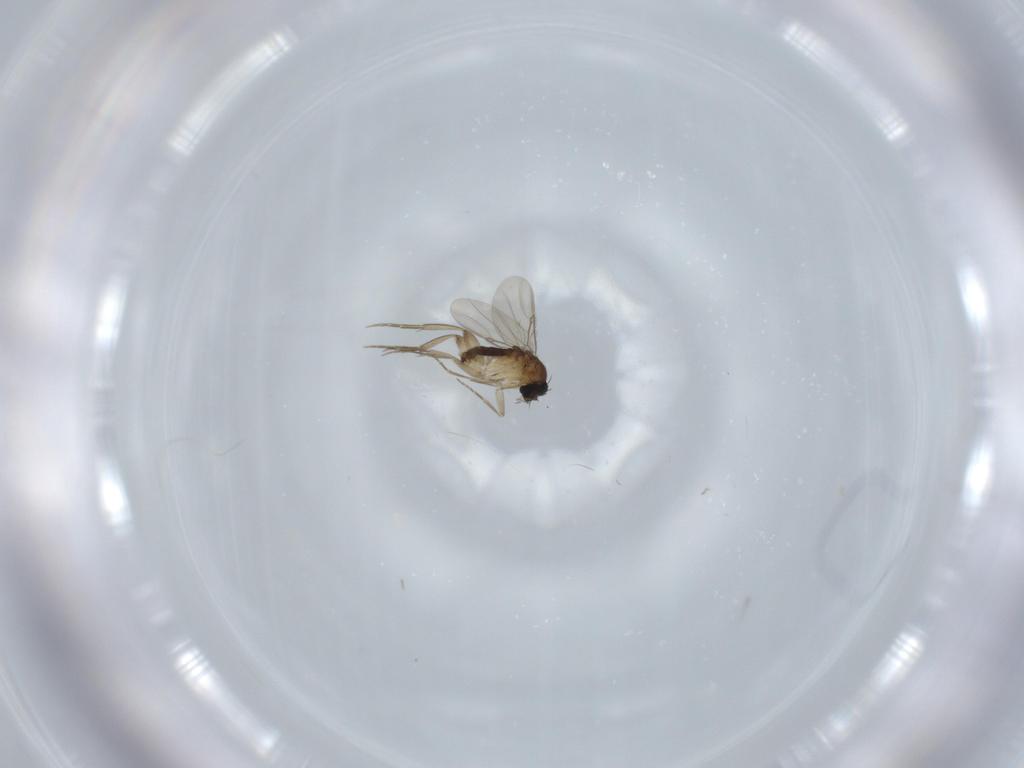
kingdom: Animalia
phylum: Arthropoda
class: Insecta
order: Diptera
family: Phoridae
